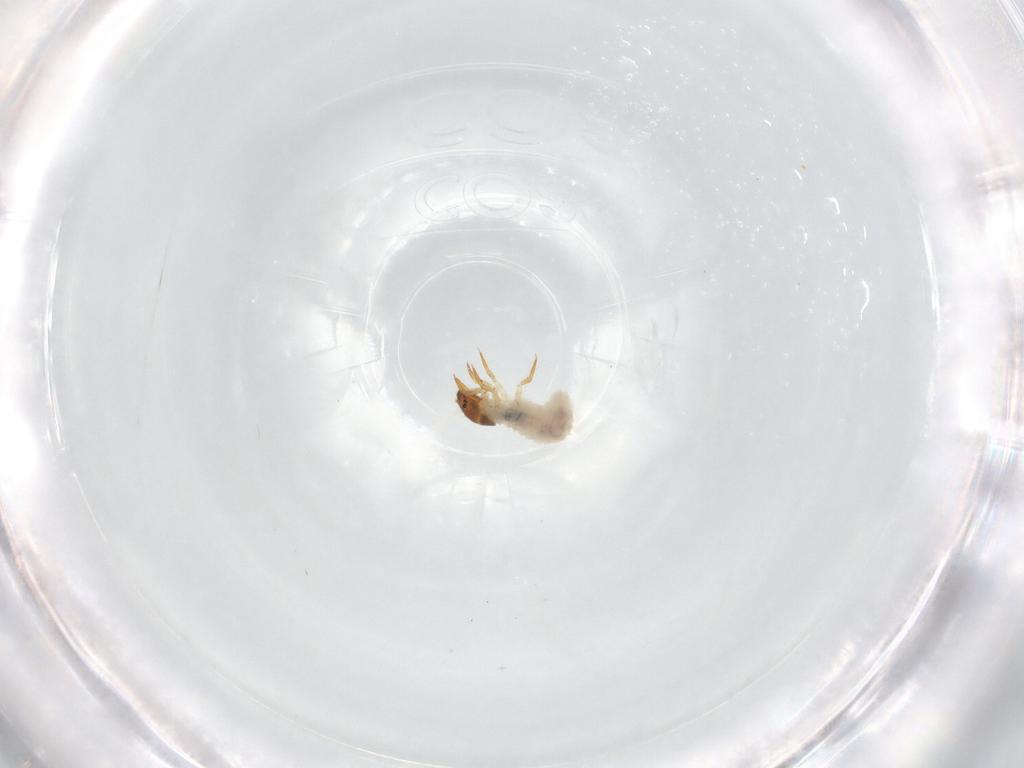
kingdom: Animalia
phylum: Arthropoda
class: Insecta
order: Coleoptera
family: Chrysomelidae
